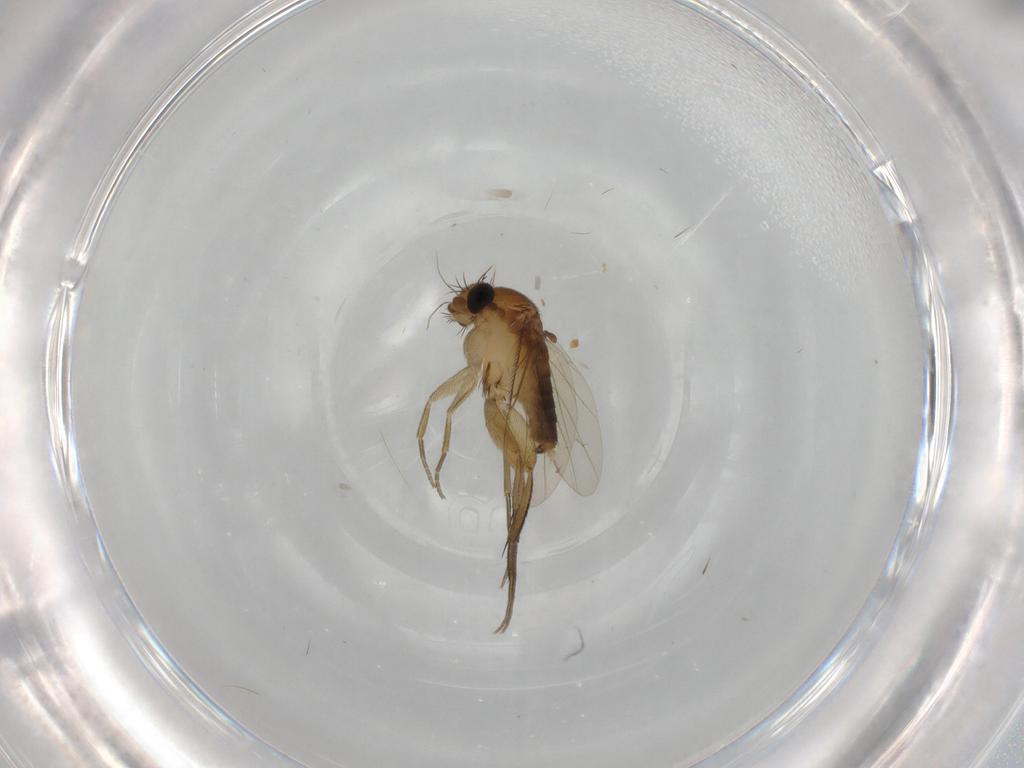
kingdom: Animalia
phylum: Arthropoda
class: Insecta
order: Diptera
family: Phoridae
